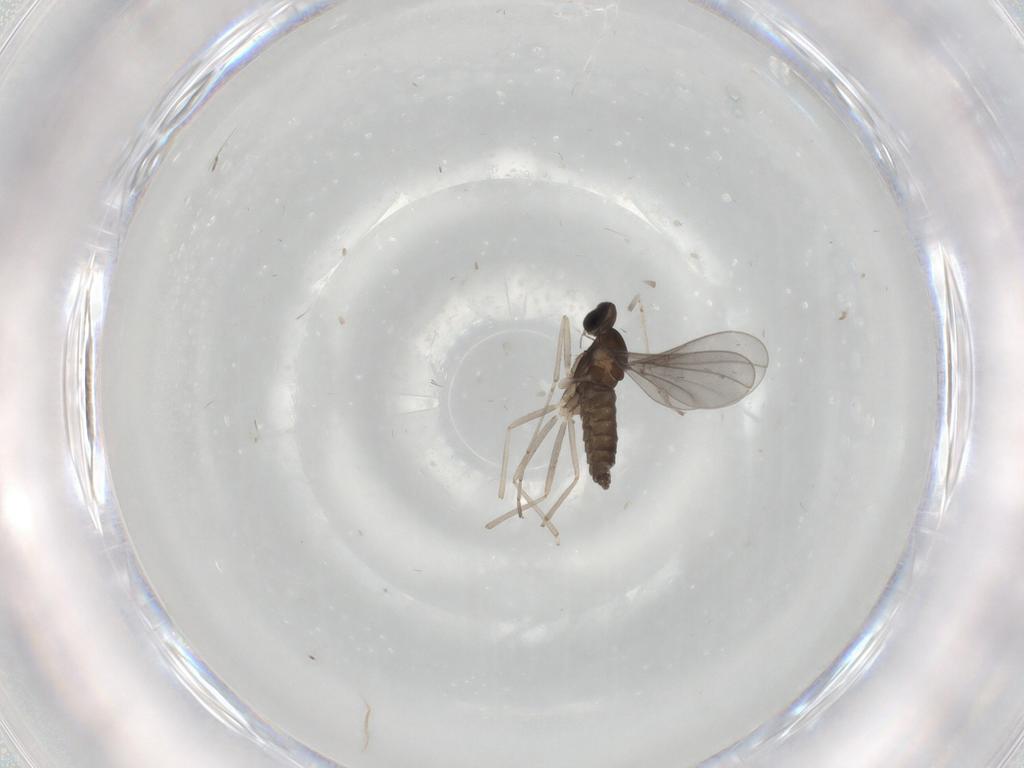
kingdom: Animalia
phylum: Arthropoda
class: Insecta
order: Diptera
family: Cecidomyiidae
